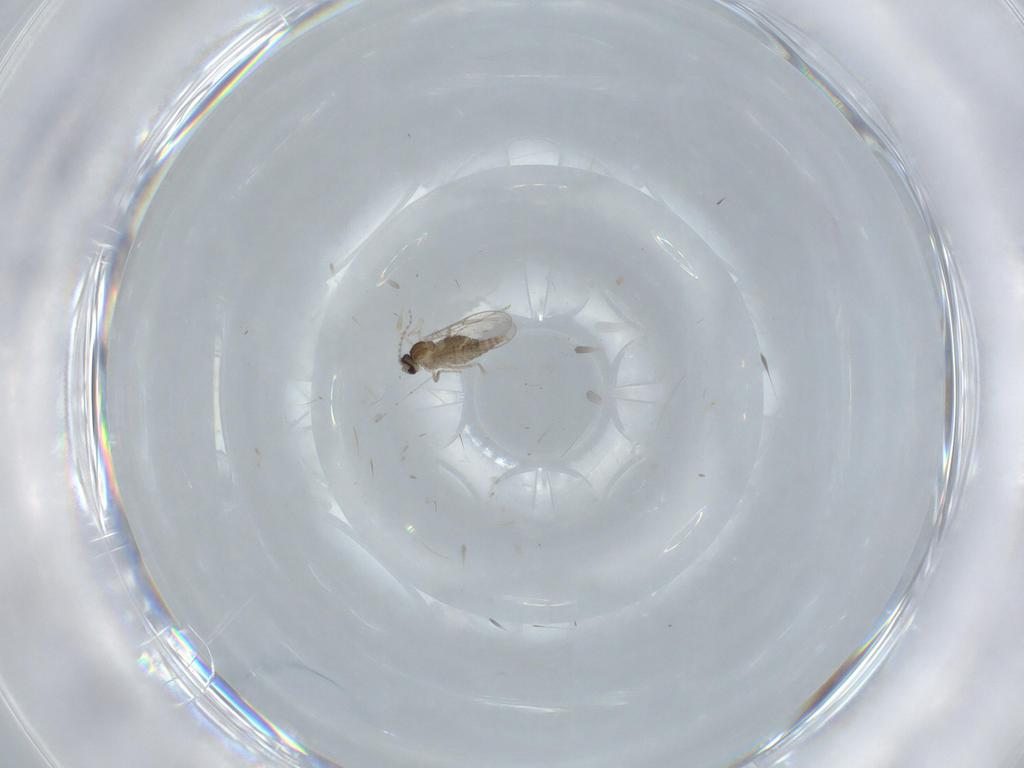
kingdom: Animalia
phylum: Arthropoda
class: Insecta
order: Diptera
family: Cecidomyiidae
